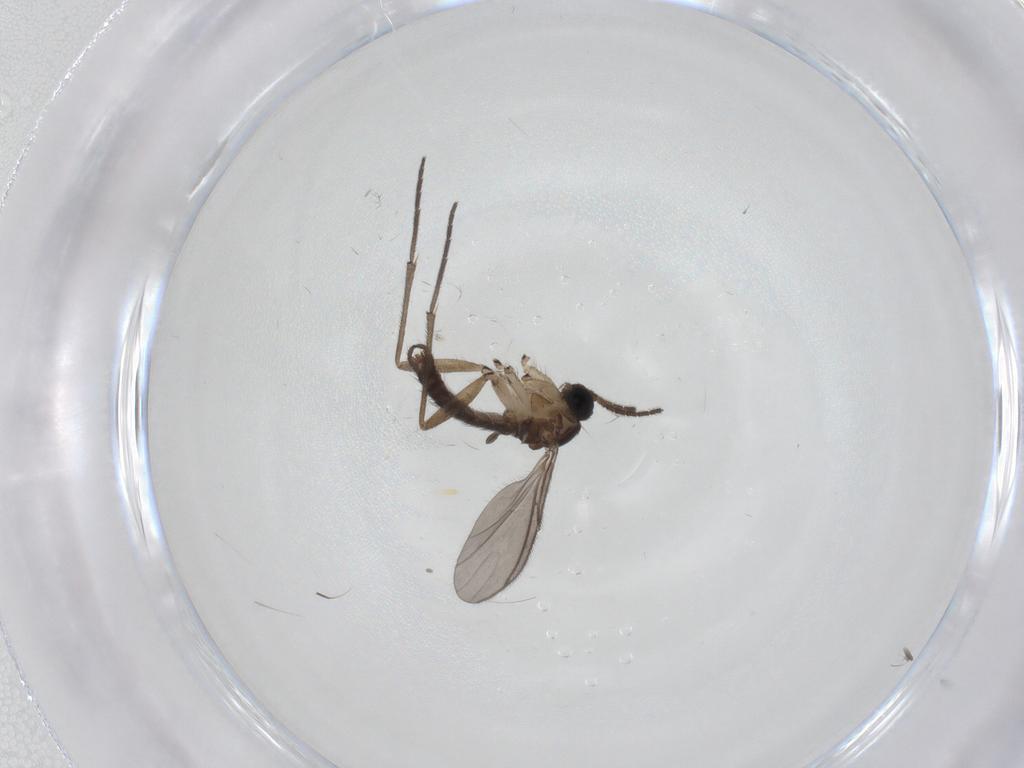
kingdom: Animalia
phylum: Arthropoda
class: Insecta
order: Diptera
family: Sciaridae
